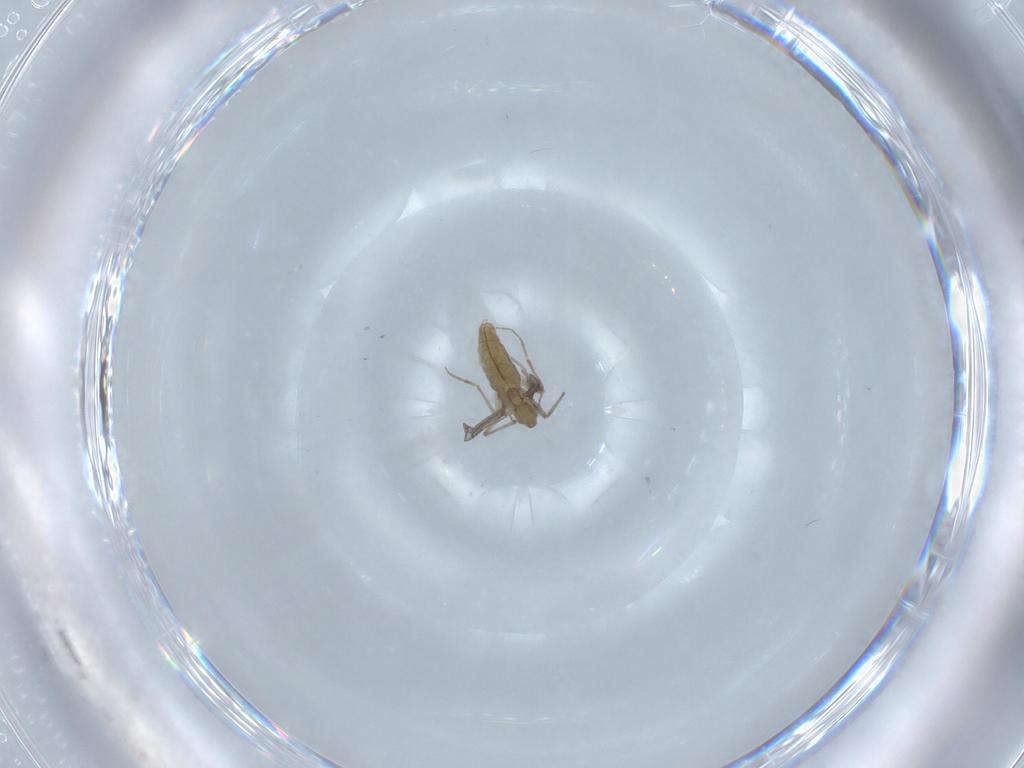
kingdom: Animalia
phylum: Arthropoda
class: Insecta
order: Diptera
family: Chironomidae
